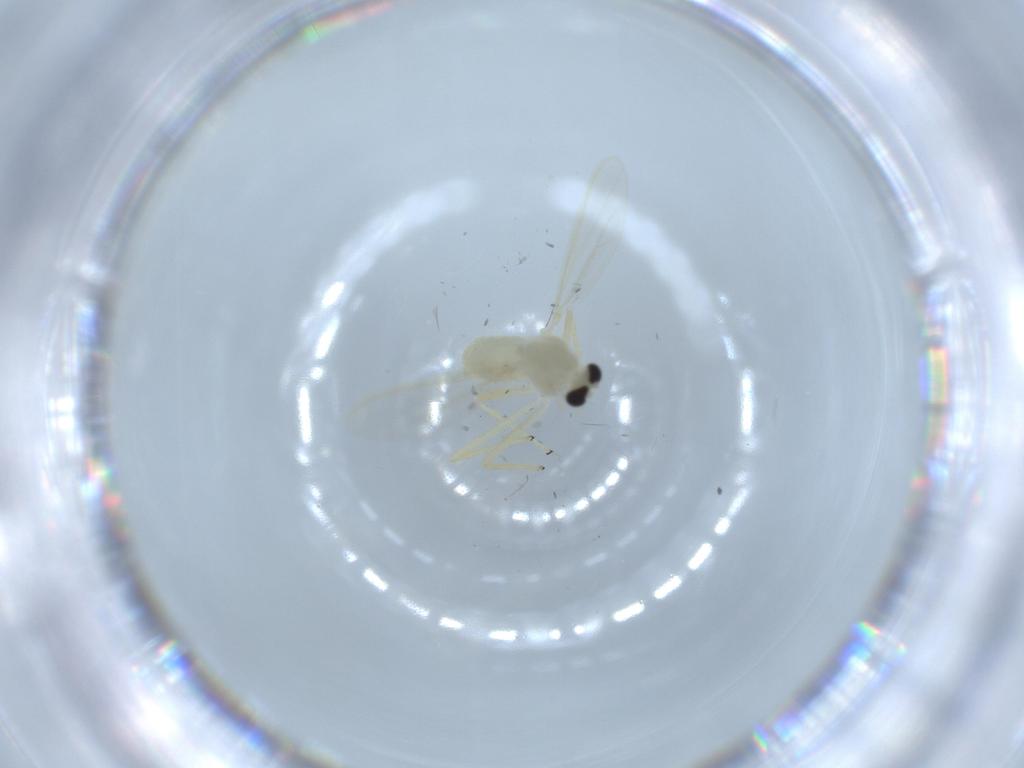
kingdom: Animalia
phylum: Arthropoda
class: Insecta
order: Diptera
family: Chironomidae
